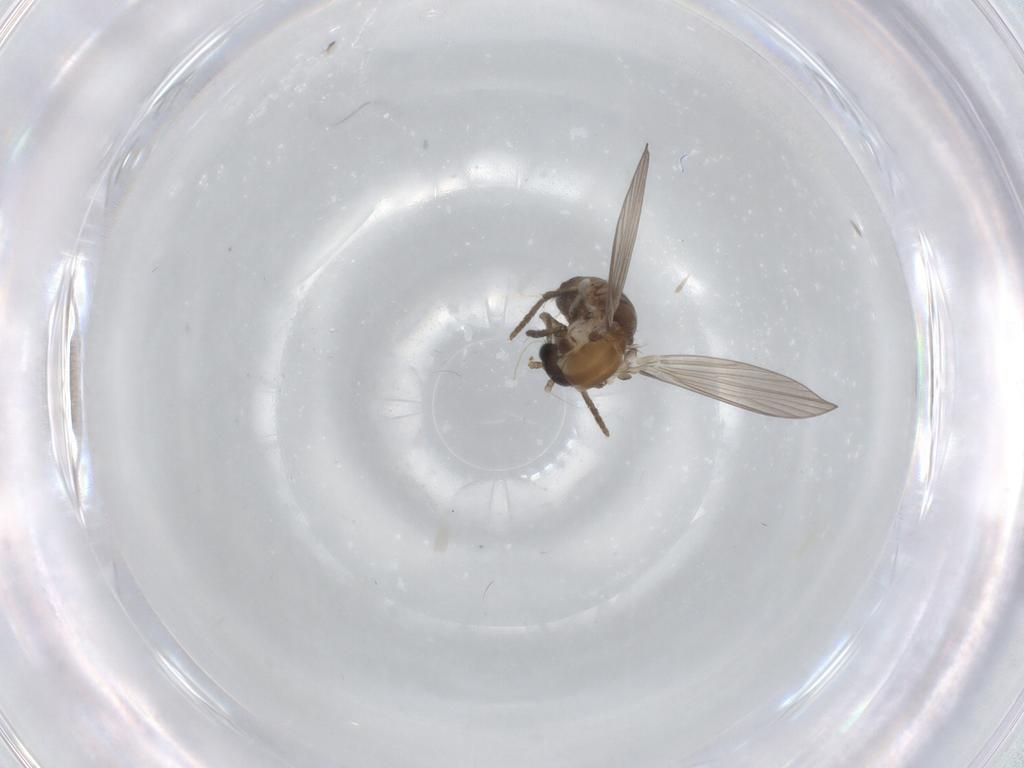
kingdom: Animalia
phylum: Arthropoda
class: Insecta
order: Diptera
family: Psychodidae
